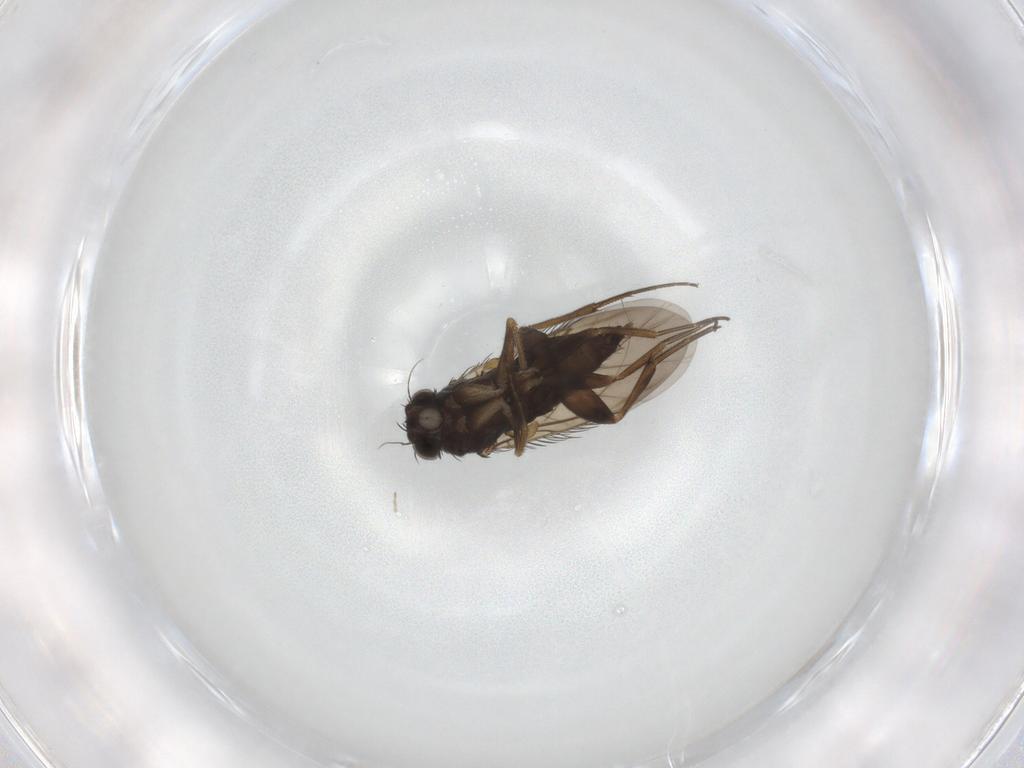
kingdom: Animalia
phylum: Arthropoda
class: Insecta
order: Diptera
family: Phoridae
